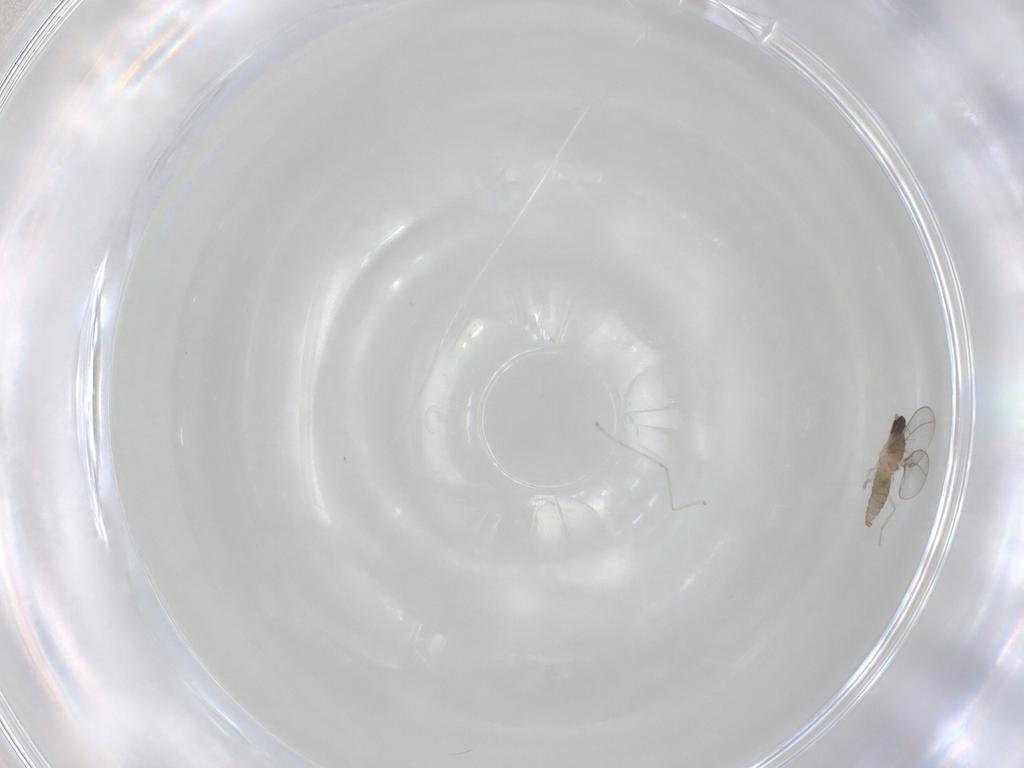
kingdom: Animalia
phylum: Arthropoda
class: Insecta
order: Diptera
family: Cecidomyiidae
